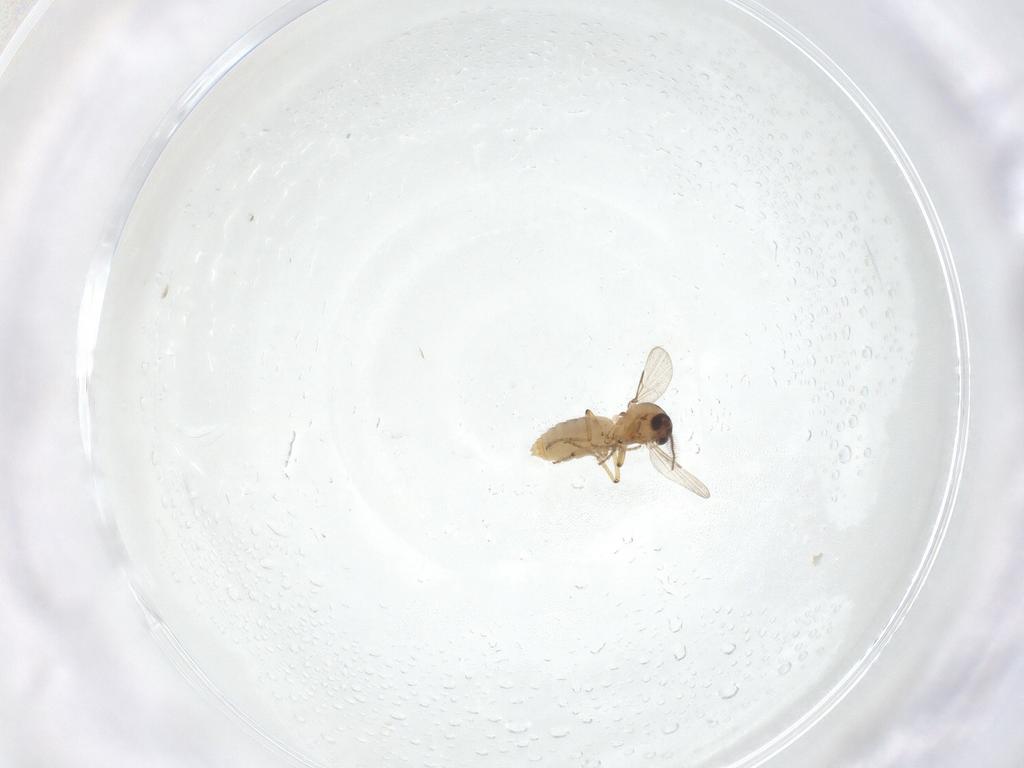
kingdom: Animalia
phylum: Arthropoda
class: Insecta
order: Diptera
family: Ceratopogonidae
